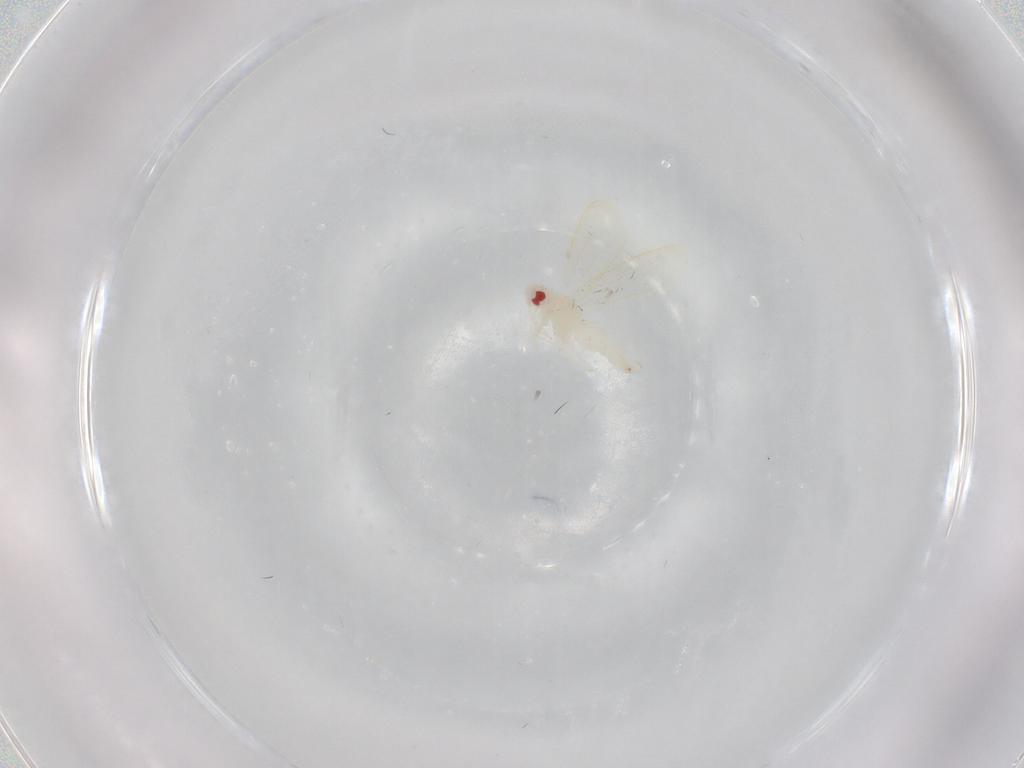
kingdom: Animalia
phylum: Arthropoda
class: Insecta
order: Hemiptera
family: Aleyrodidae
